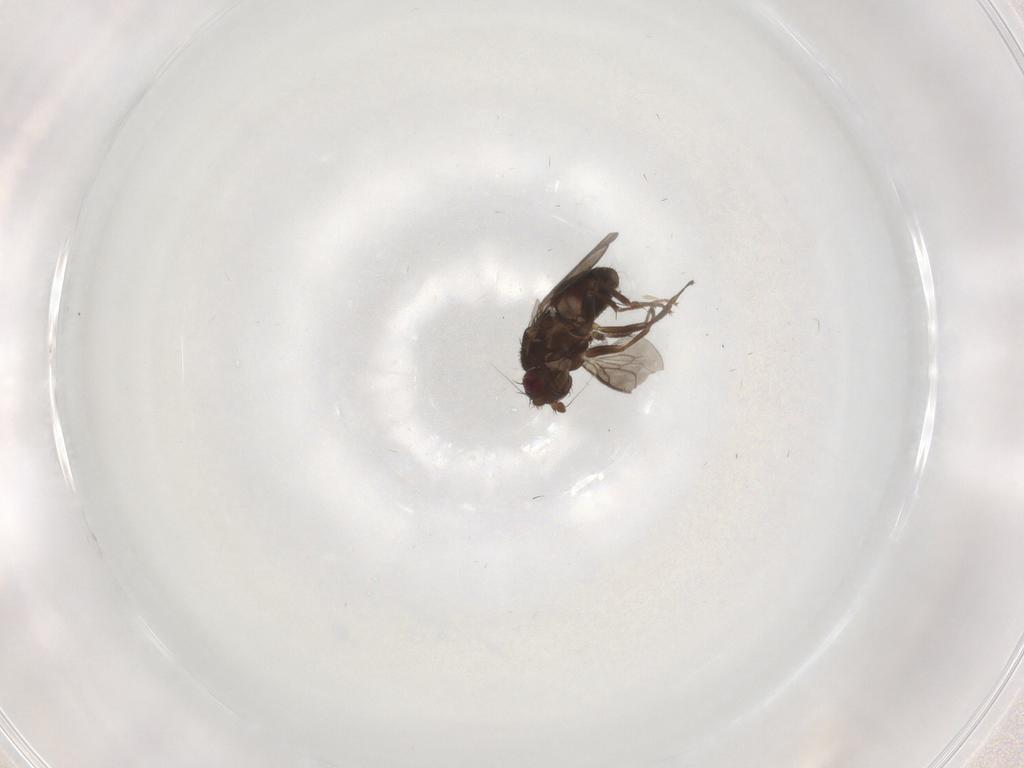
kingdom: Animalia
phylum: Arthropoda
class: Insecta
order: Diptera
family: Sphaeroceridae
